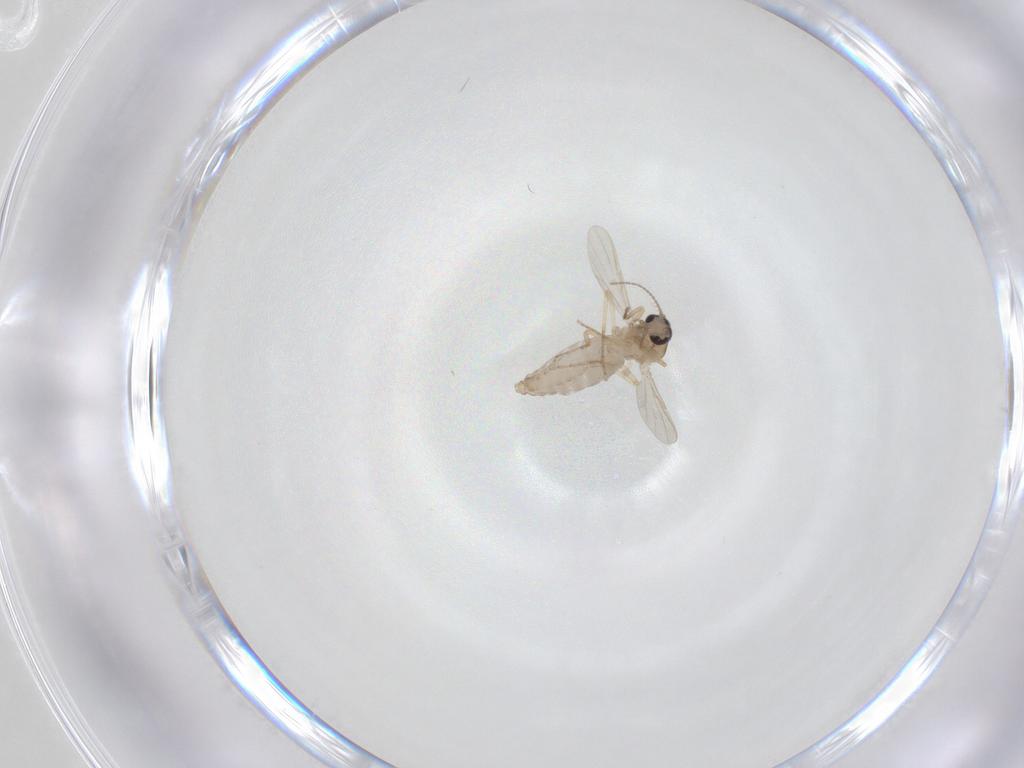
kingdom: Animalia
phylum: Arthropoda
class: Insecta
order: Diptera
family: Ceratopogonidae
